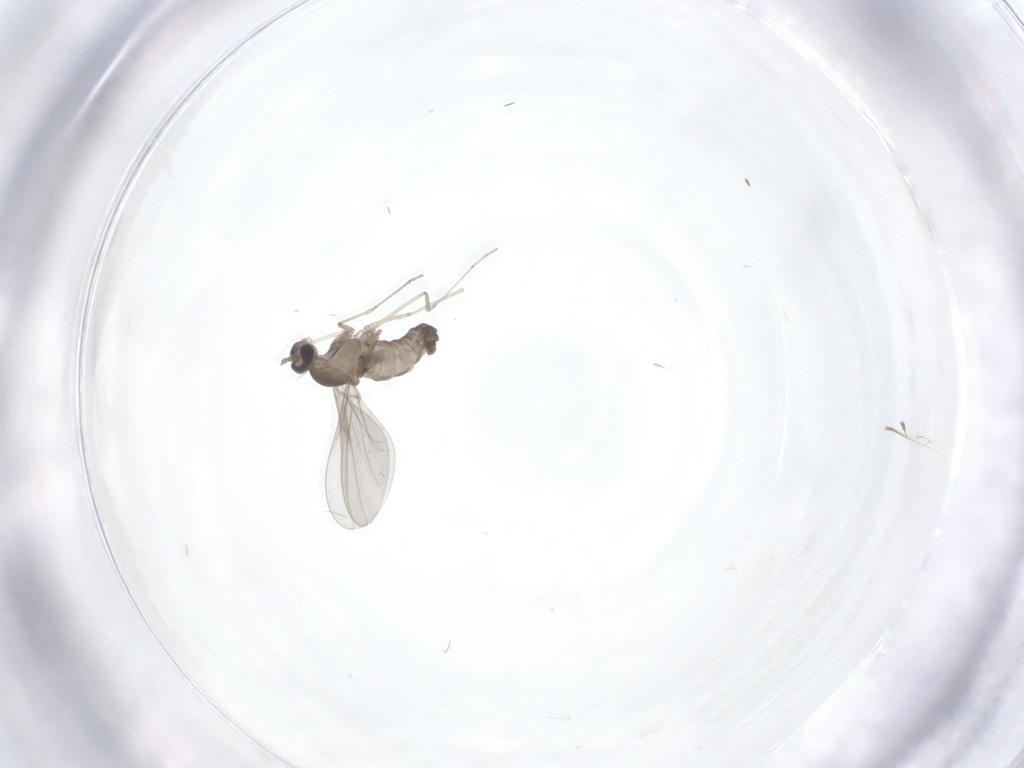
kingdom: Animalia
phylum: Arthropoda
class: Insecta
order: Diptera
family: Cecidomyiidae
